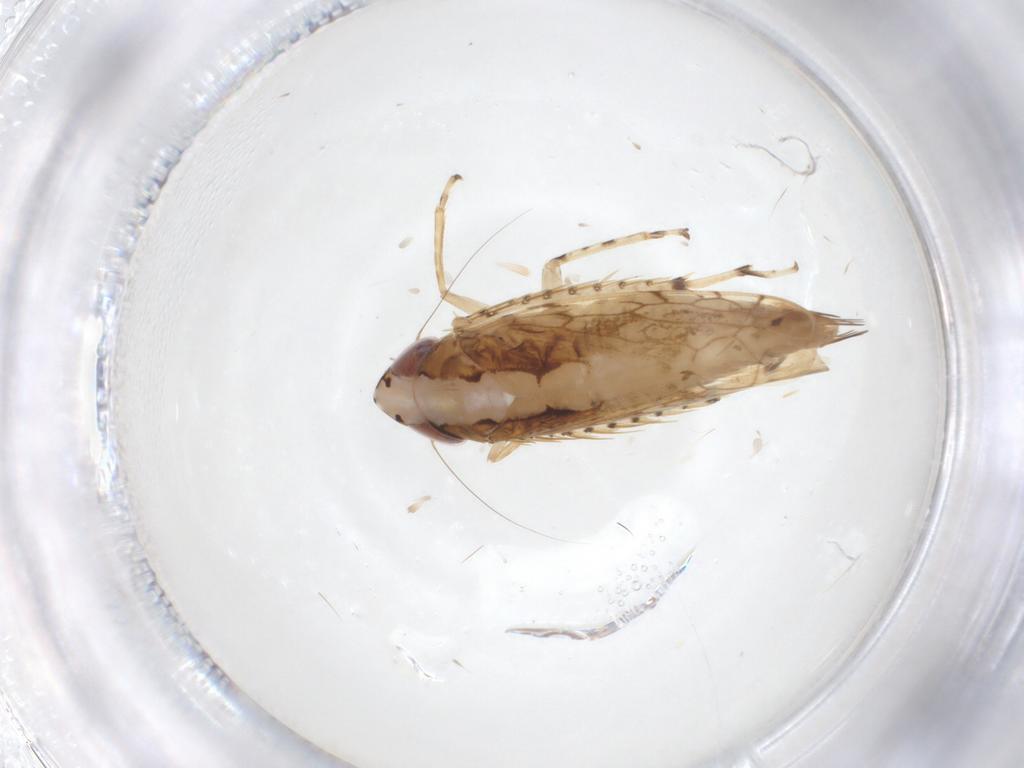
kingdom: Animalia
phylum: Arthropoda
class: Insecta
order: Hemiptera
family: Cicadellidae
